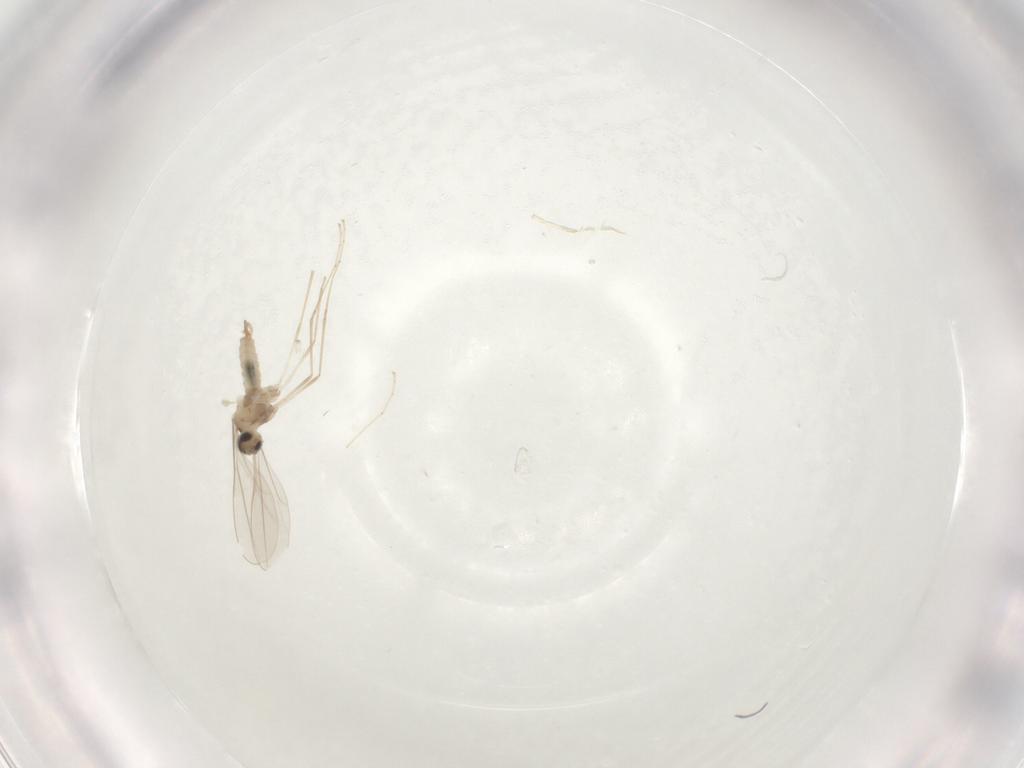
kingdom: Animalia
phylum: Arthropoda
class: Insecta
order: Diptera
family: Cecidomyiidae
